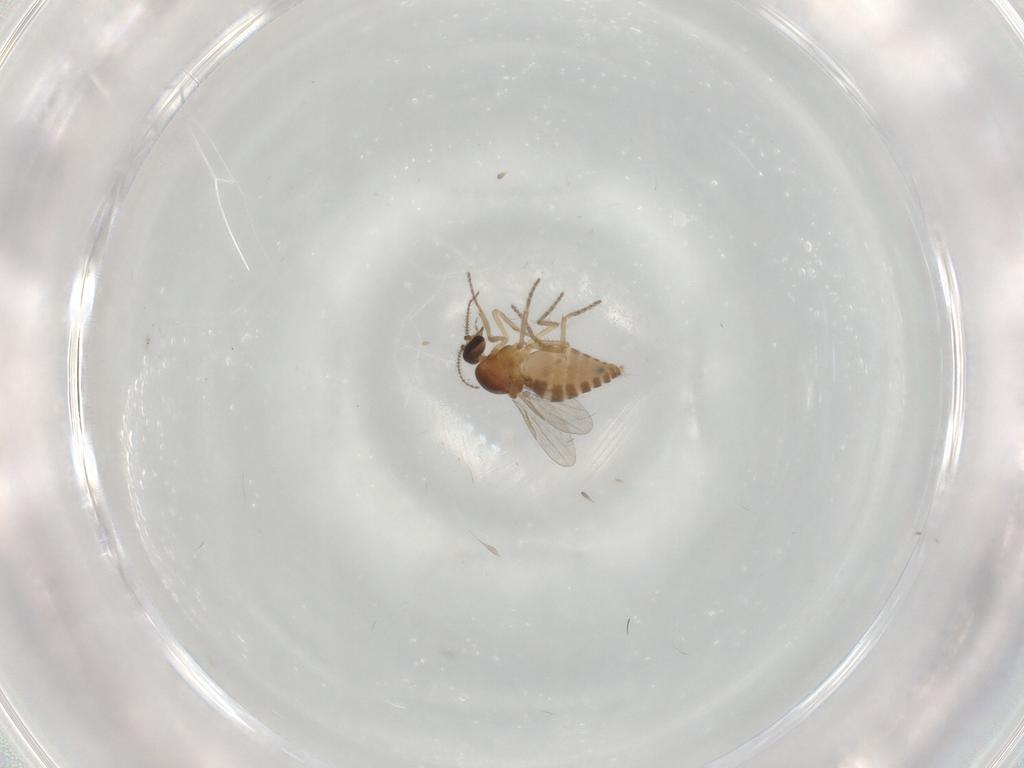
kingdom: Animalia
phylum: Arthropoda
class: Insecta
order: Diptera
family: Ceratopogonidae
